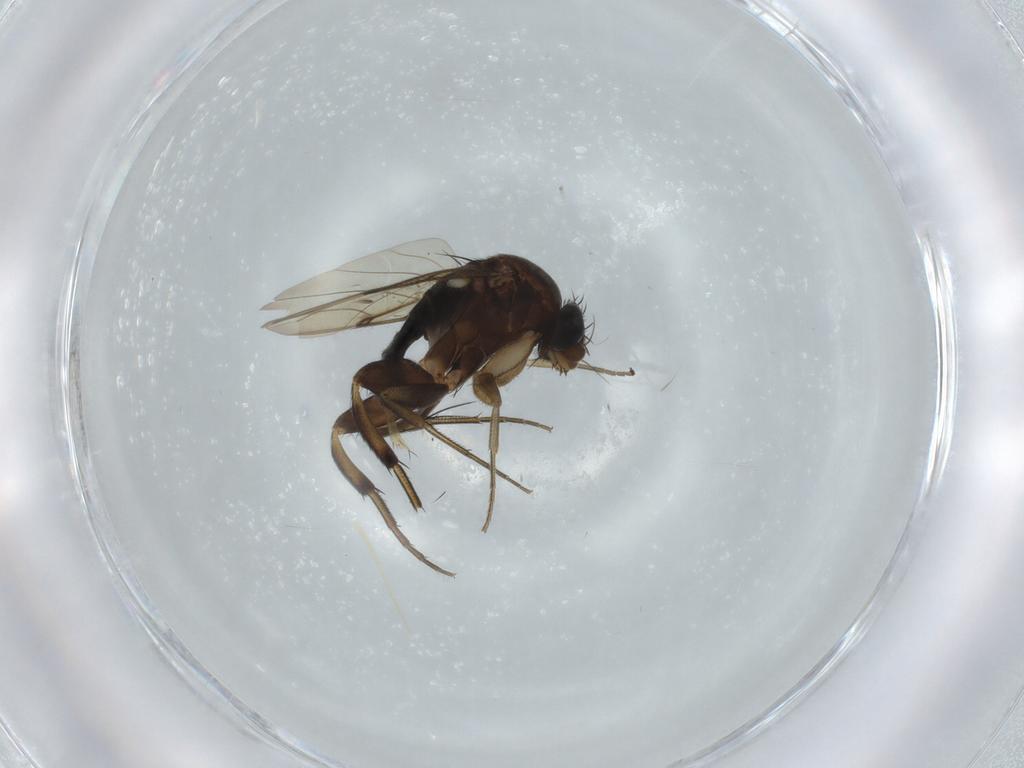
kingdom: Animalia
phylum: Arthropoda
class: Insecta
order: Diptera
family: Phoridae
